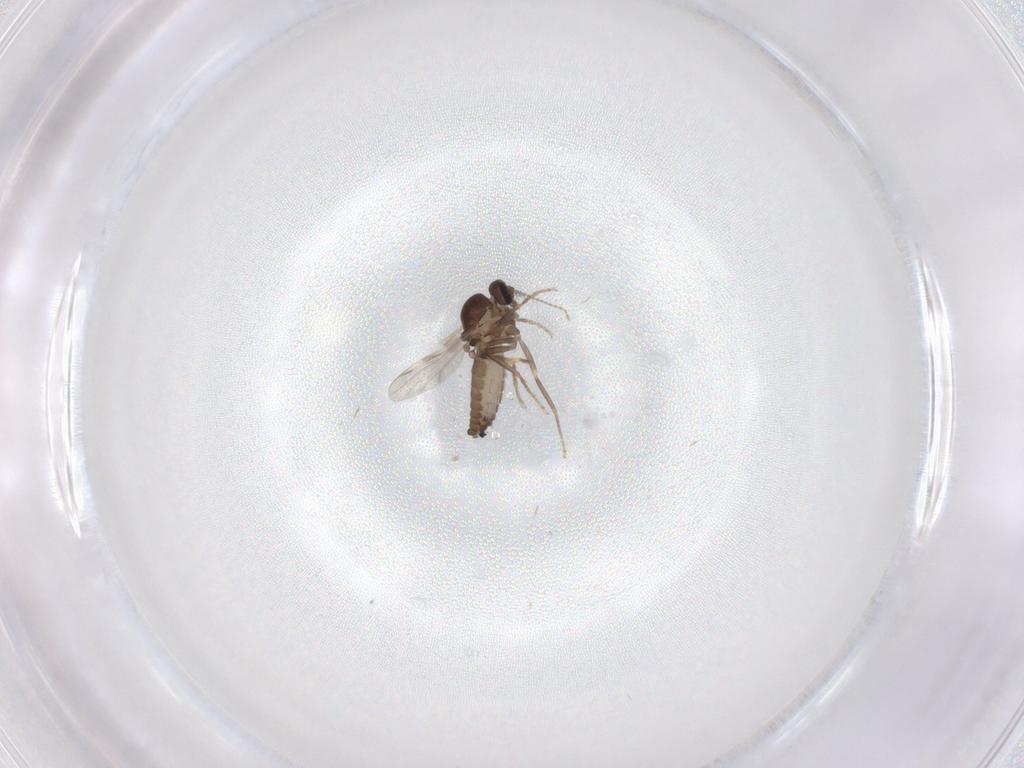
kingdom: Animalia
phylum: Arthropoda
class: Insecta
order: Diptera
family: Ceratopogonidae
